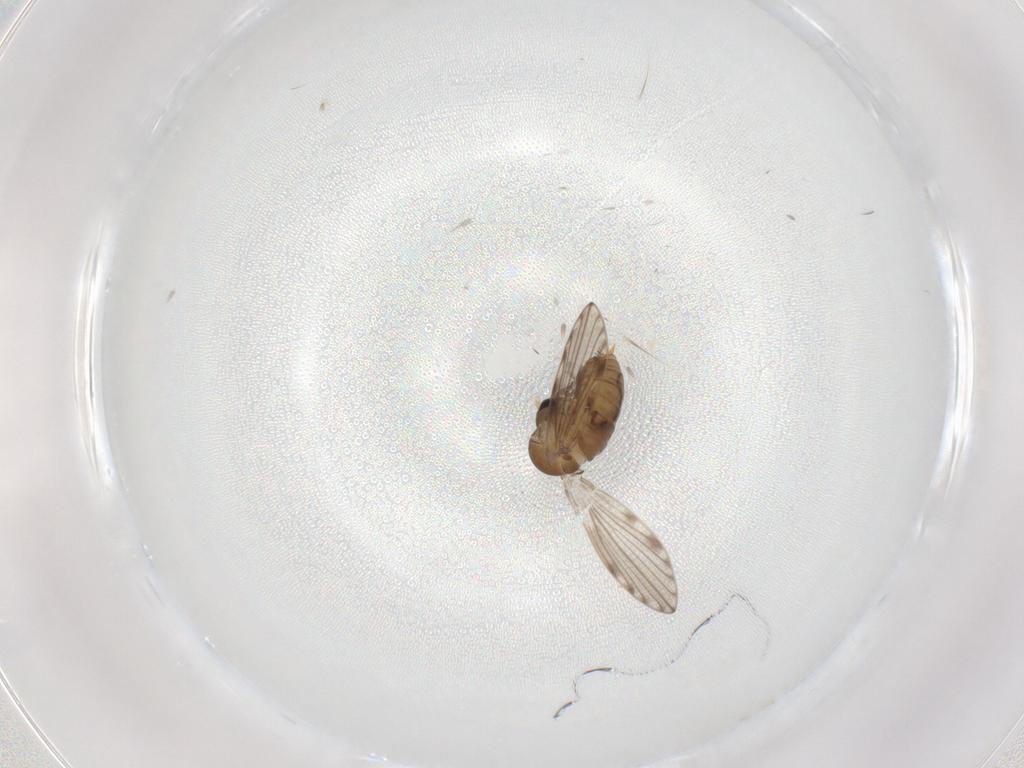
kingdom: Animalia
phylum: Arthropoda
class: Insecta
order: Diptera
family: Psychodidae
